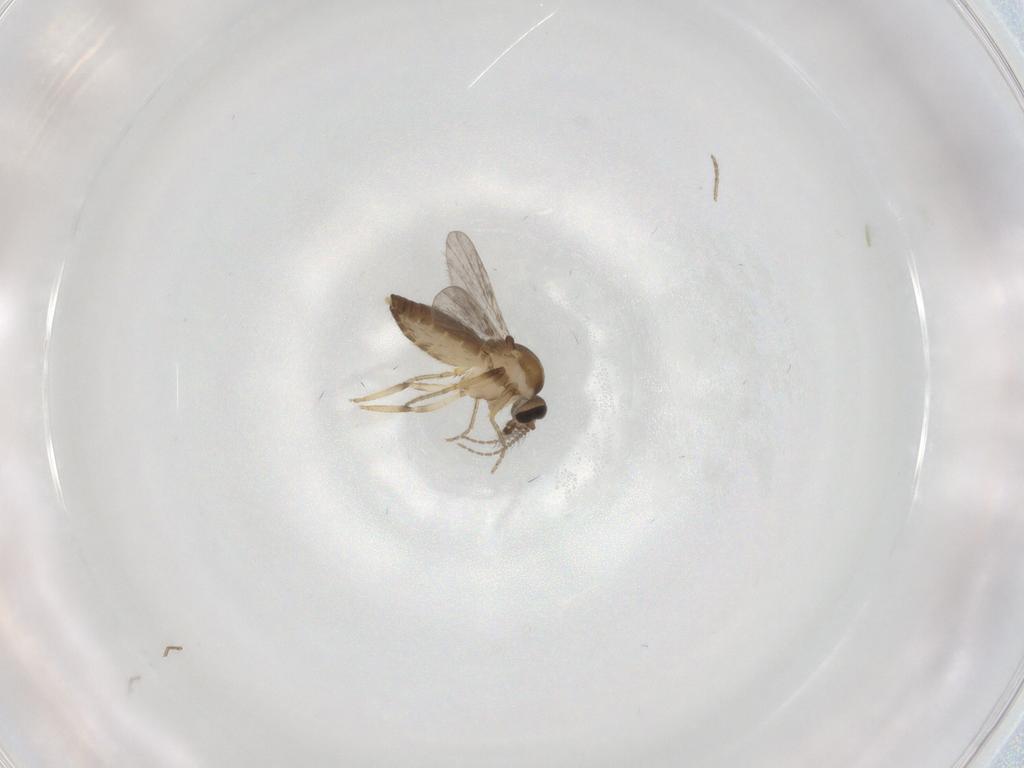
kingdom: Animalia
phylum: Arthropoda
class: Insecta
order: Diptera
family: Ceratopogonidae
